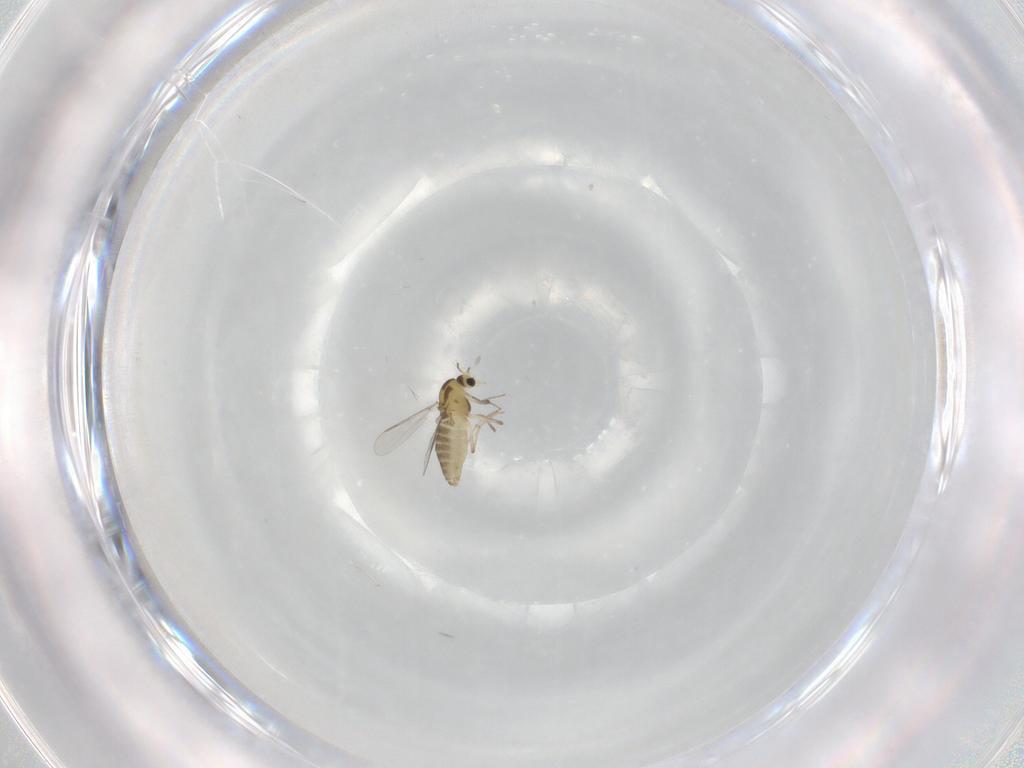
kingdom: Animalia
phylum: Arthropoda
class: Insecta
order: Diptera
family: Chironomidae
